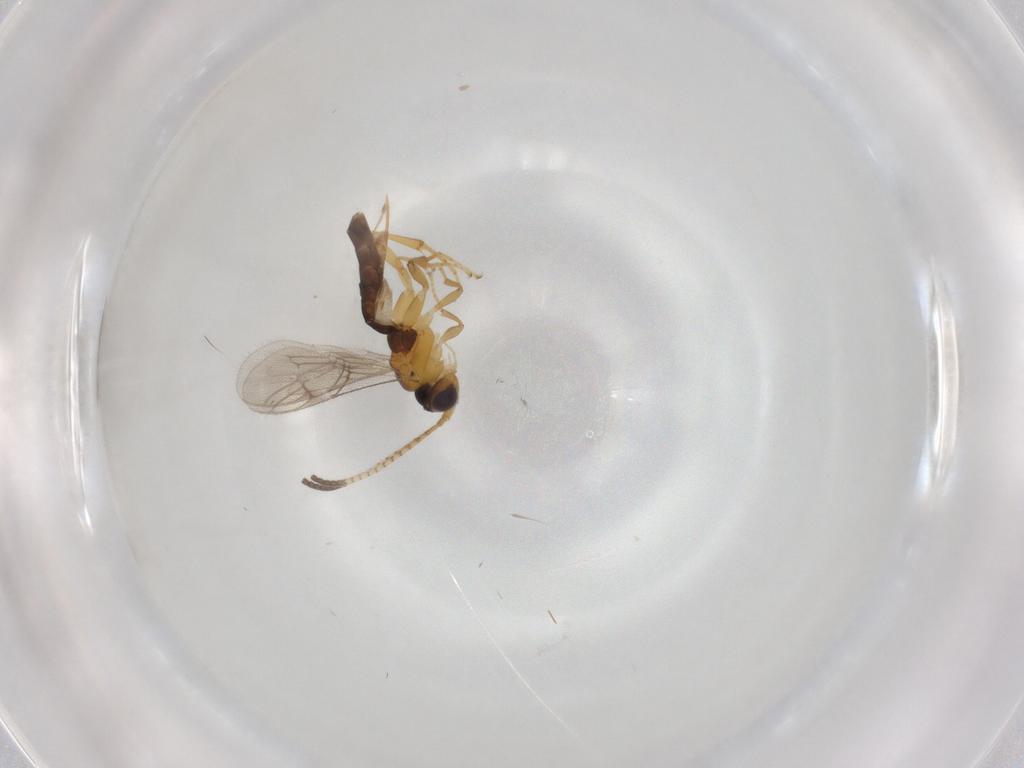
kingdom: Animalia
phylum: Arthropoda
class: Insecta
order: Hymenoptera
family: Ichneumonidae
